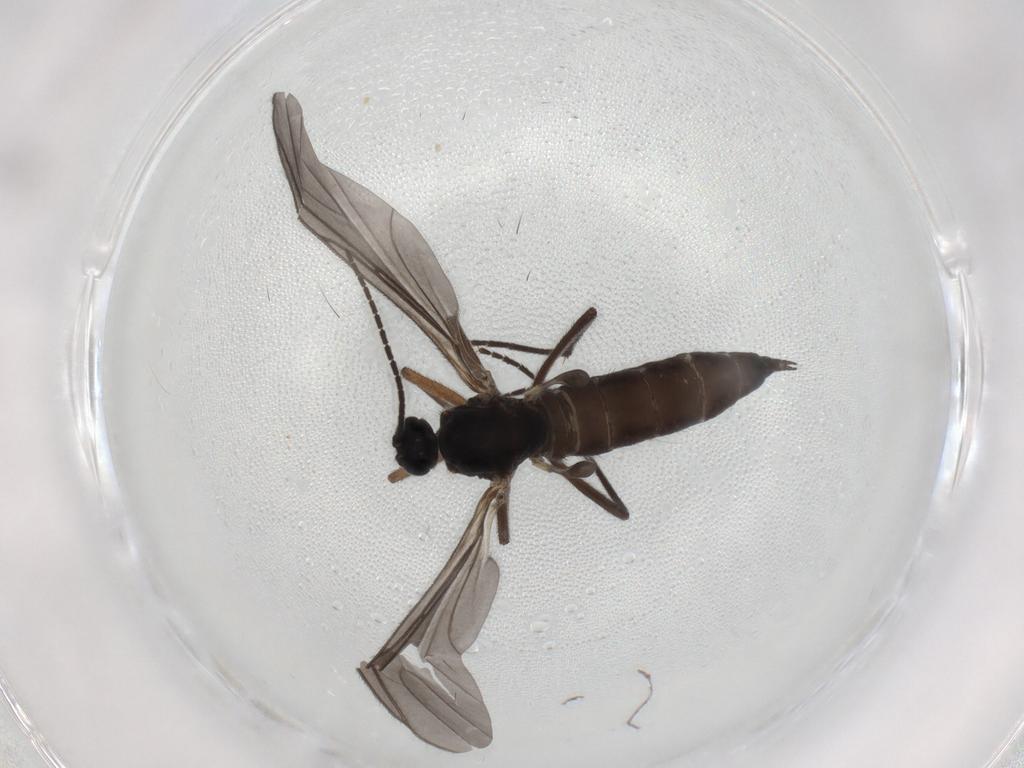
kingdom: Animalia
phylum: Arthropoda
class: Insecta
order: Diptera
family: Sciaridae
